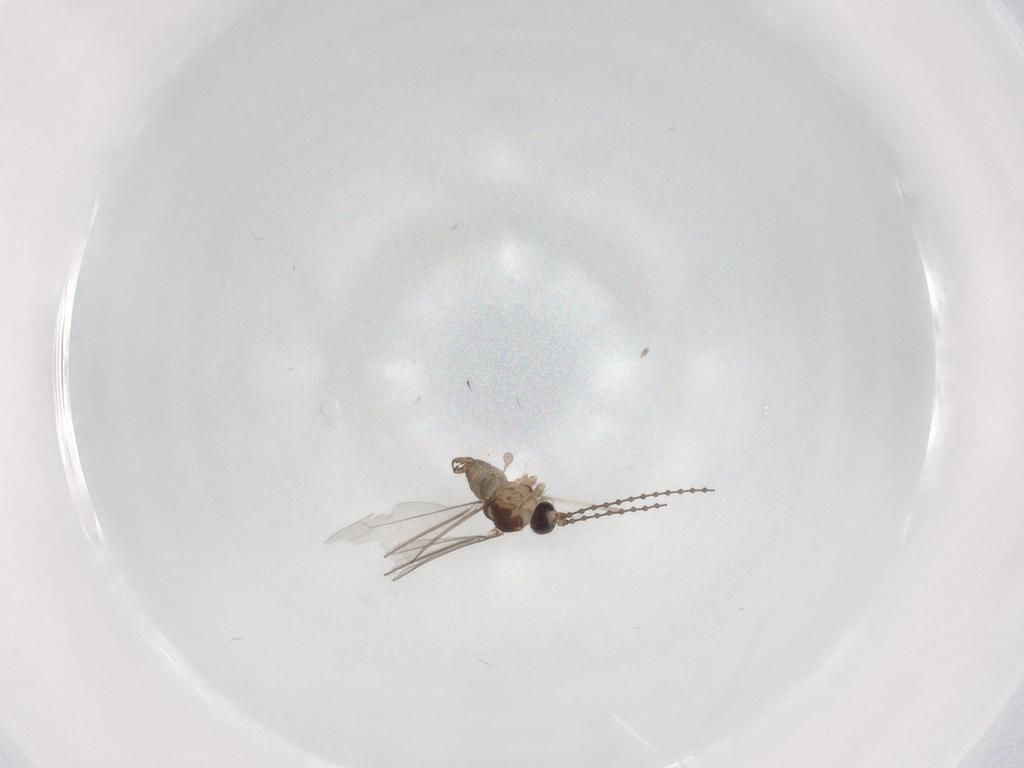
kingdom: Animalia
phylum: Arthropoda
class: Insecta
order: Diptera
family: Cecidomyiidae
